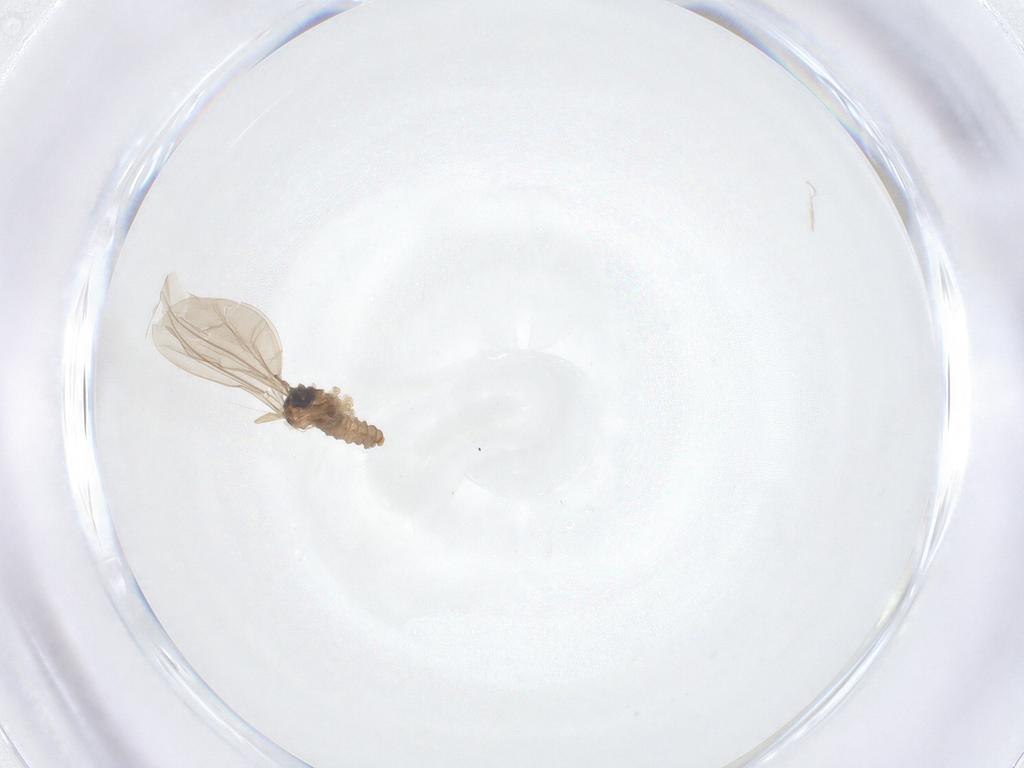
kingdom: Animalia
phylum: Arthropoda
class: Insecta
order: Diptera
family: Cecidomyiidae
